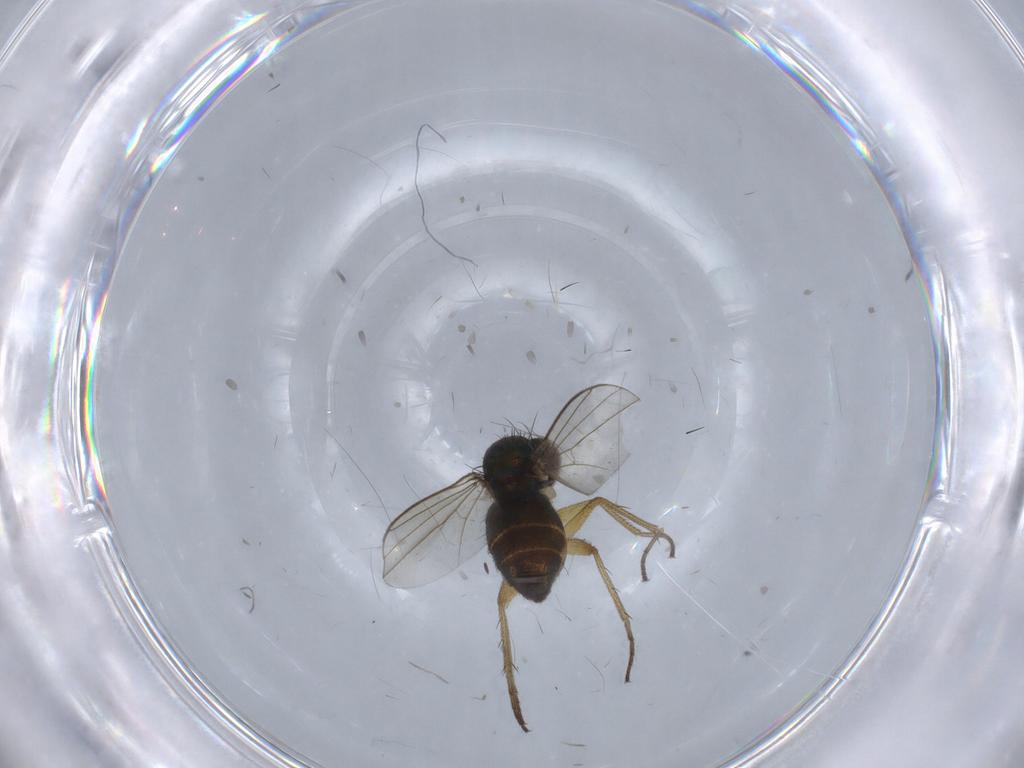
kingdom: Animalia
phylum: Arthropoda
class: Insecta
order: Diptera
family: Dolichopodidae
